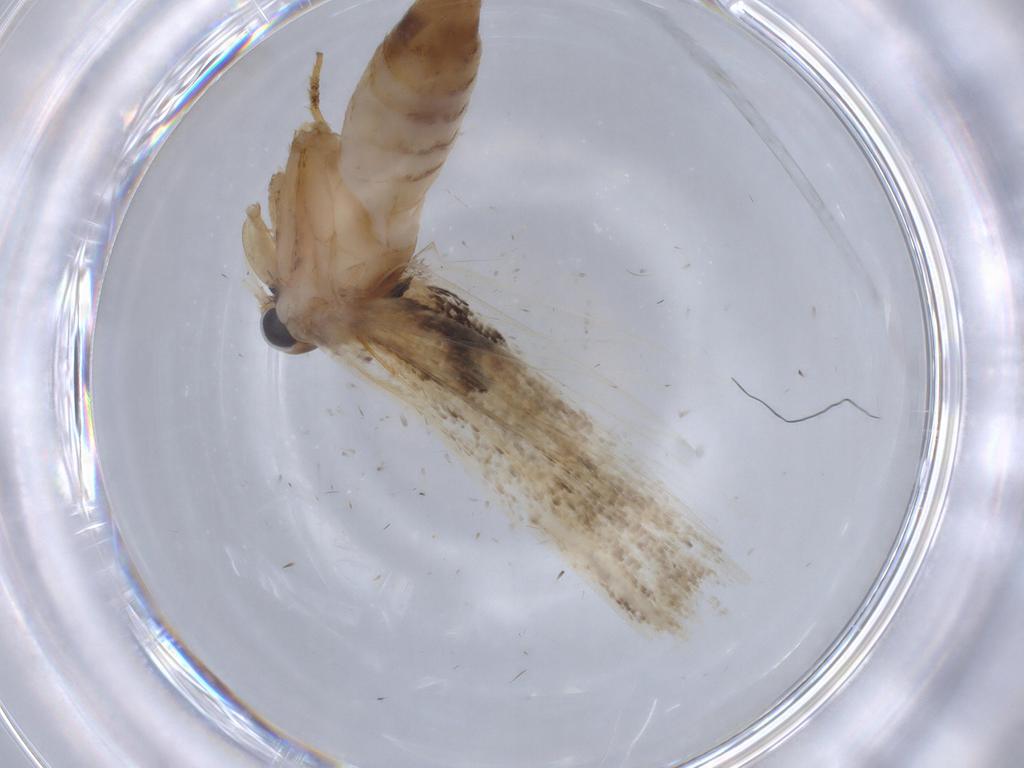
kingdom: Animalia
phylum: Arthropoda
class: Insecta
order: Lepidoptera
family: Gelechiidae
